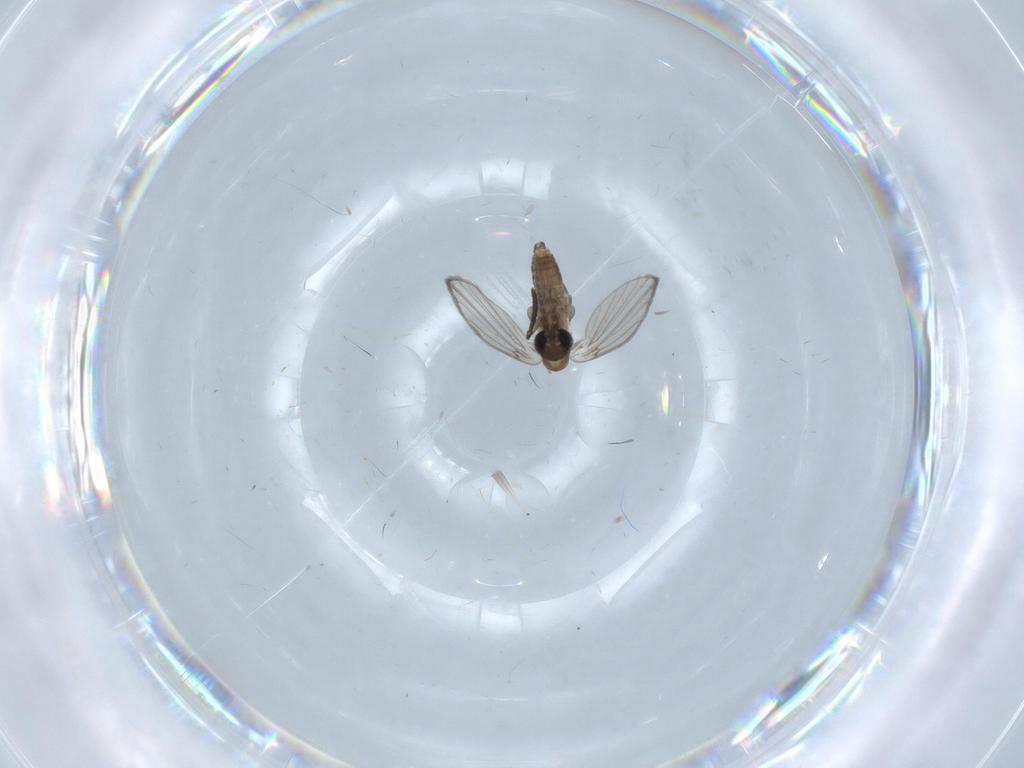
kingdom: Animalia
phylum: Arthropoda
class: Insecta
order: Diptera
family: Psychodidae
